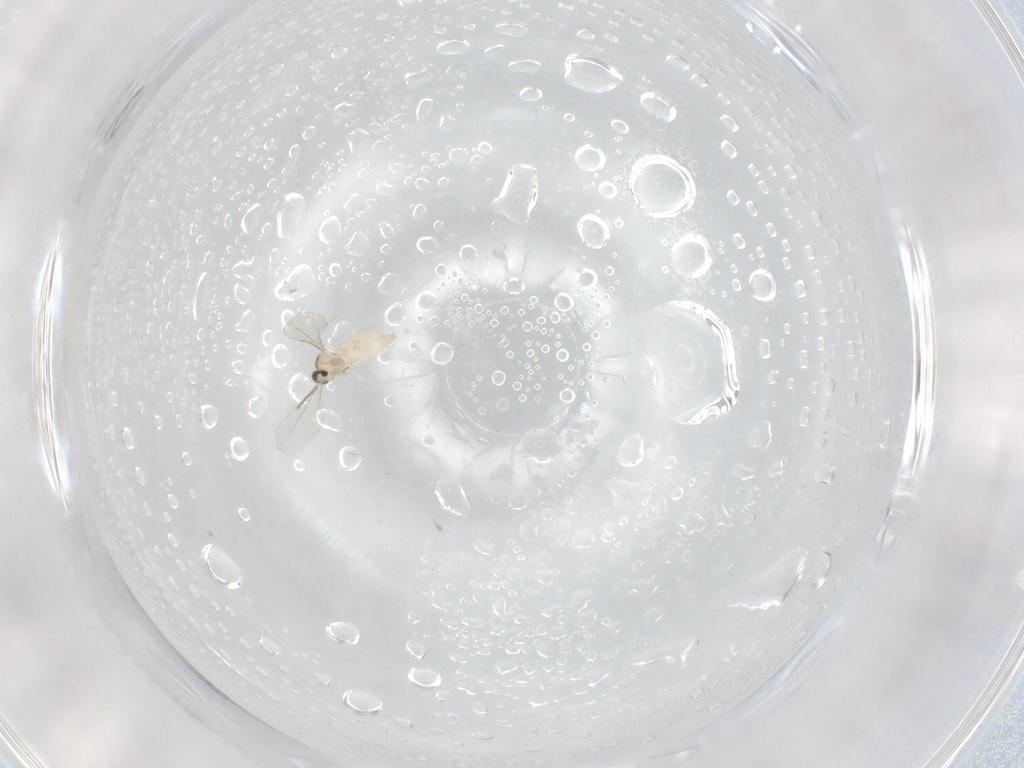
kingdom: Animalia
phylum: Arthropoda
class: Insecta
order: Diptera
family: Cecidomyiidae
